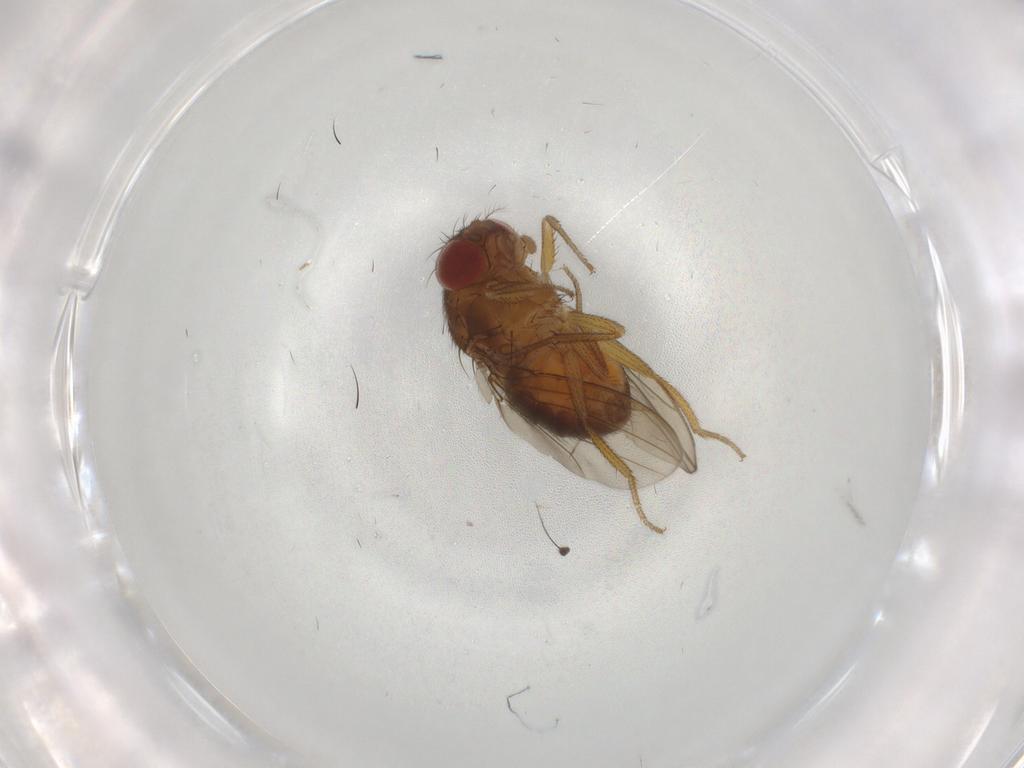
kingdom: Animalia
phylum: Arthropoda
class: Insecta
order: Diptera
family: Drosophilidae
